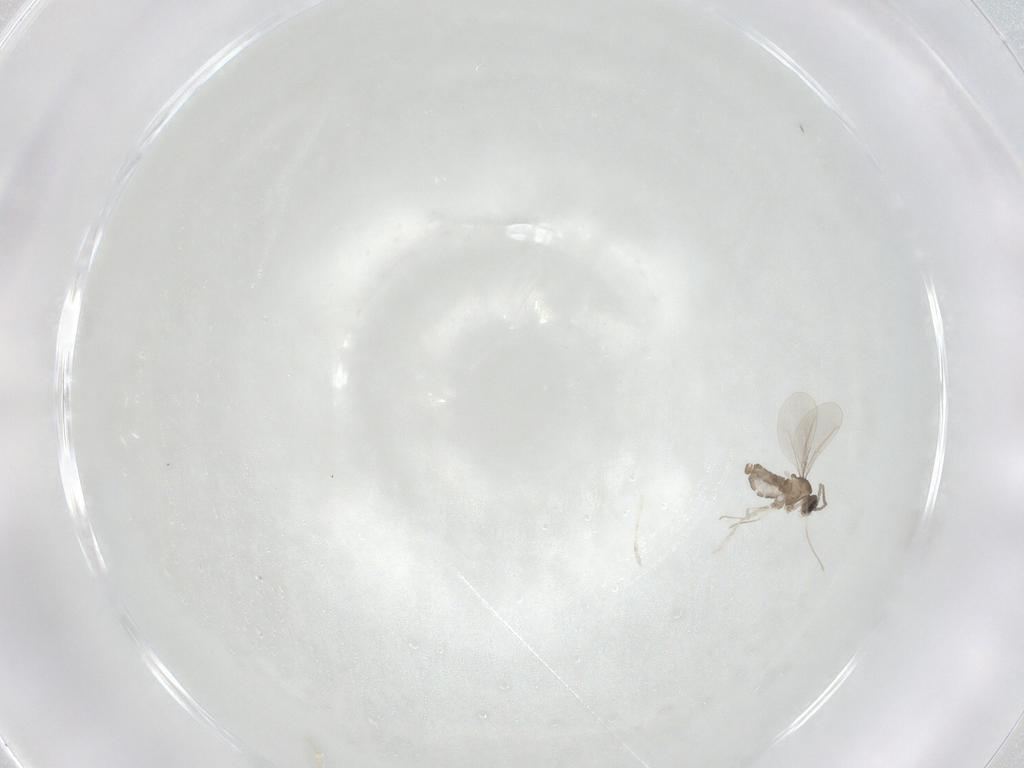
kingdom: Animalia
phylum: Arthropoda
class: Insecta
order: Diptera
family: Cecidomyiidae
